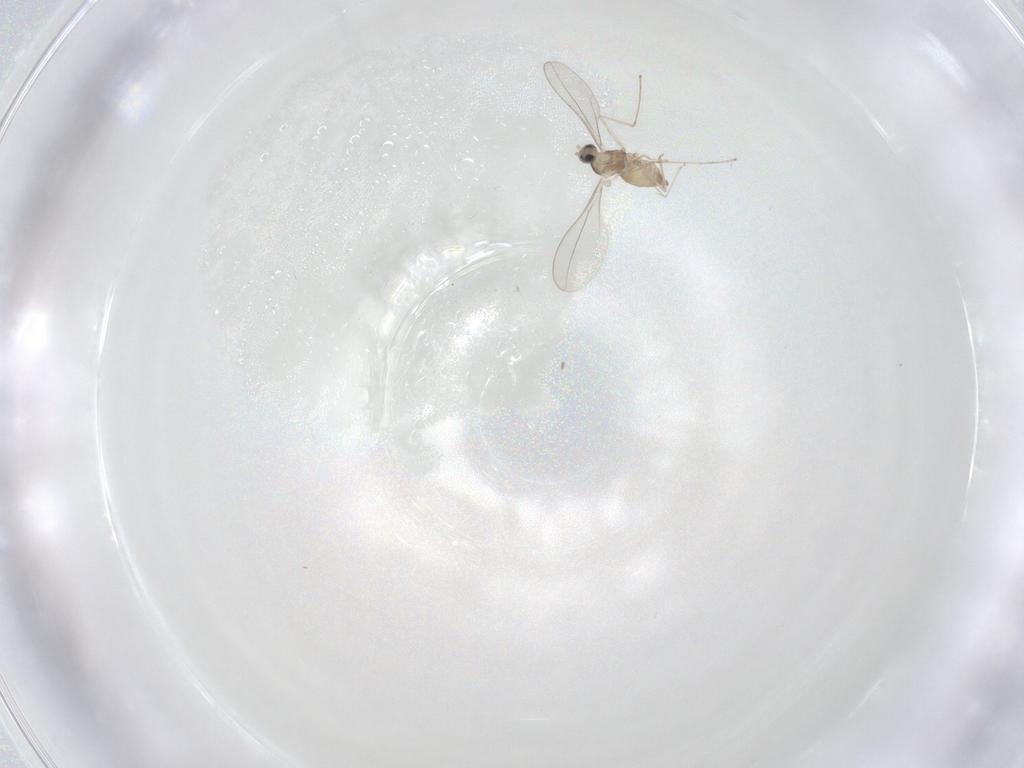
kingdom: Animalia
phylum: Arthropoda
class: Insecta
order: Diptera
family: Sciaridae
